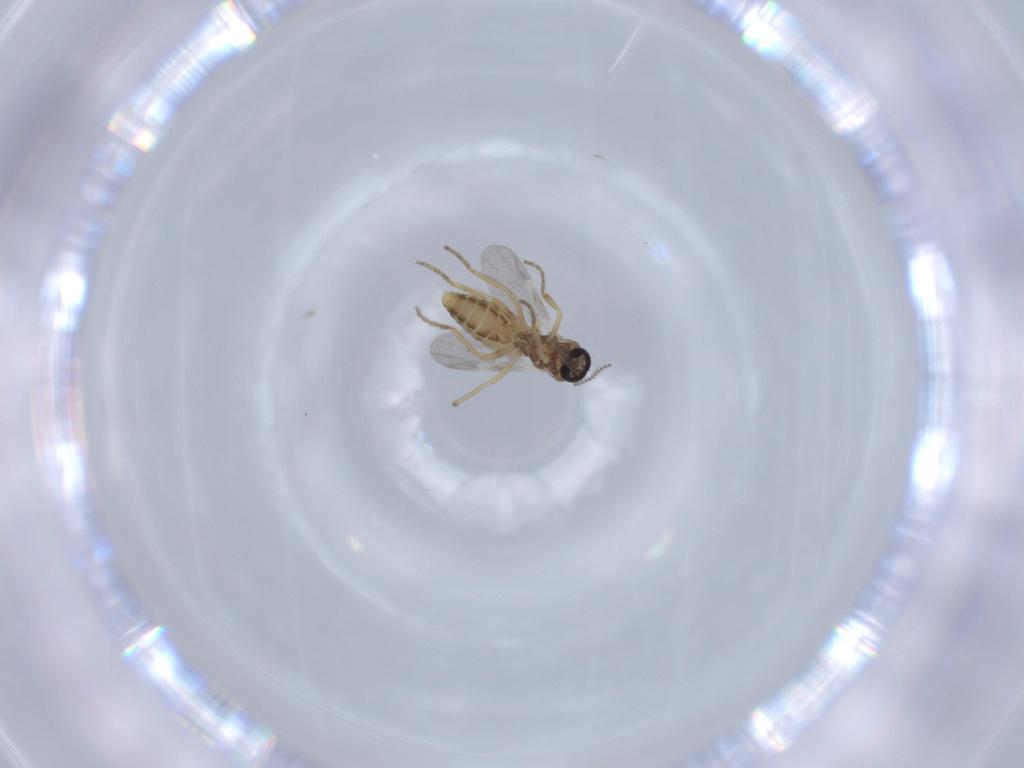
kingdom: Animalia
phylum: Arthropoda
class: Insecta
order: Diptera
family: Ceratopogonidae
